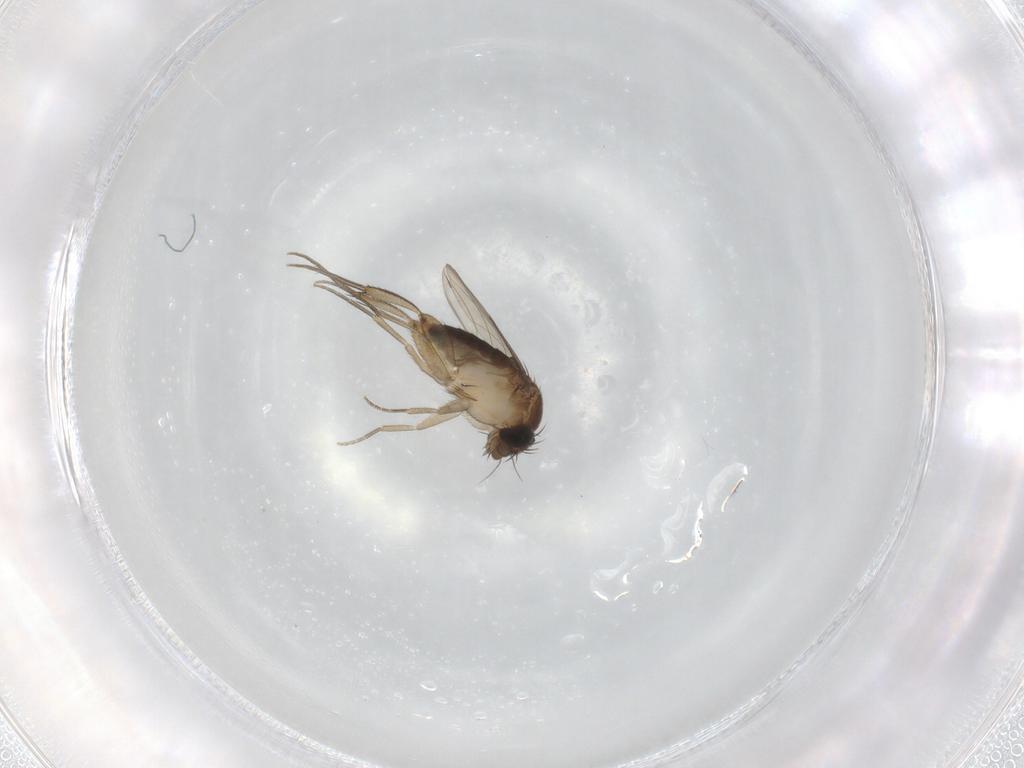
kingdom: Animalia
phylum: Arthropoda
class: Insecta
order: Diptera
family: Phoridae
